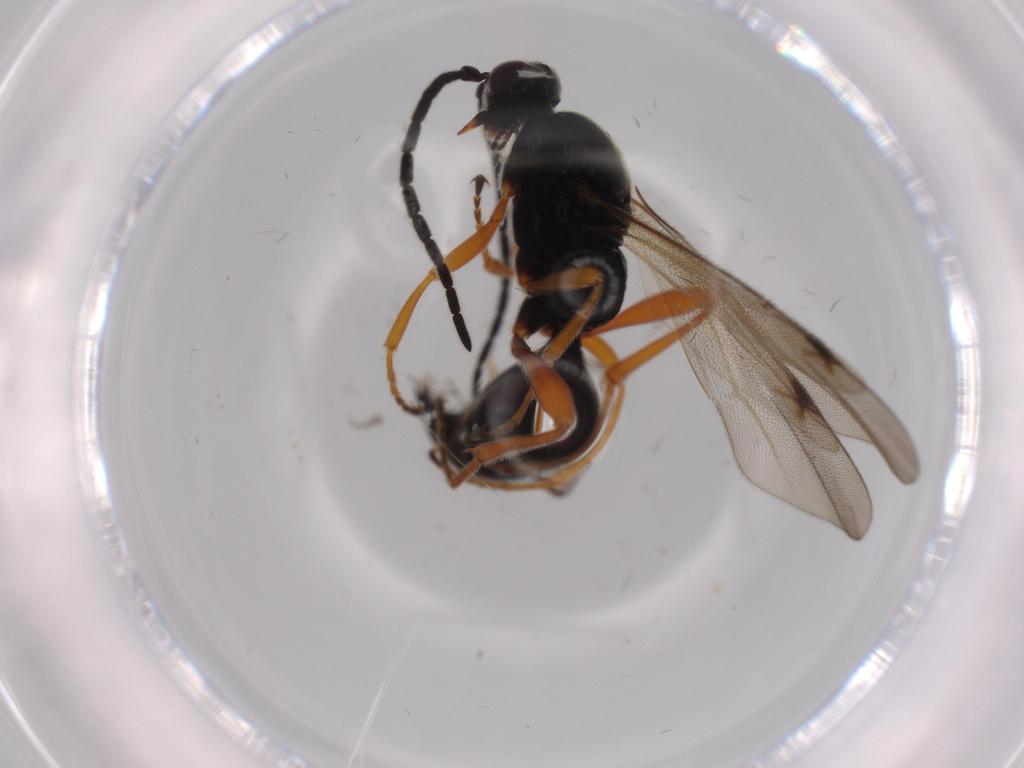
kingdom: Animalia
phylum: Arthropoda
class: Insecta
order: Hymenoptera
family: Proctotrupidae
